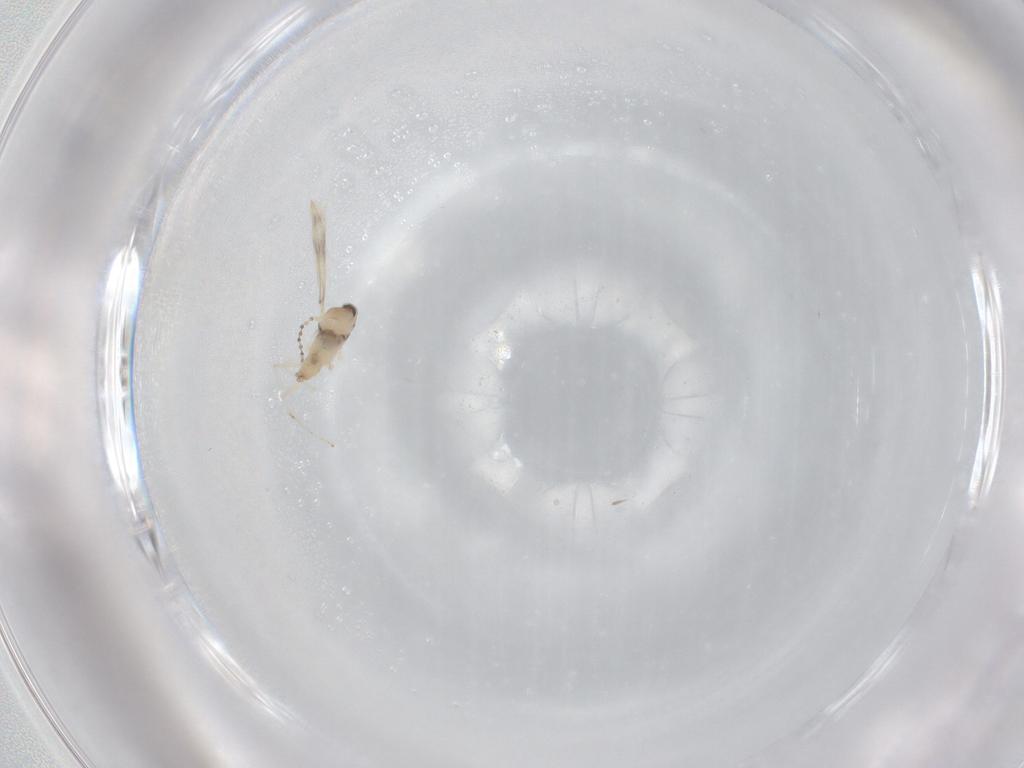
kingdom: Animalia
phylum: Arthropoda
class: Insecta
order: Diptera
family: Cecidomyiidae
